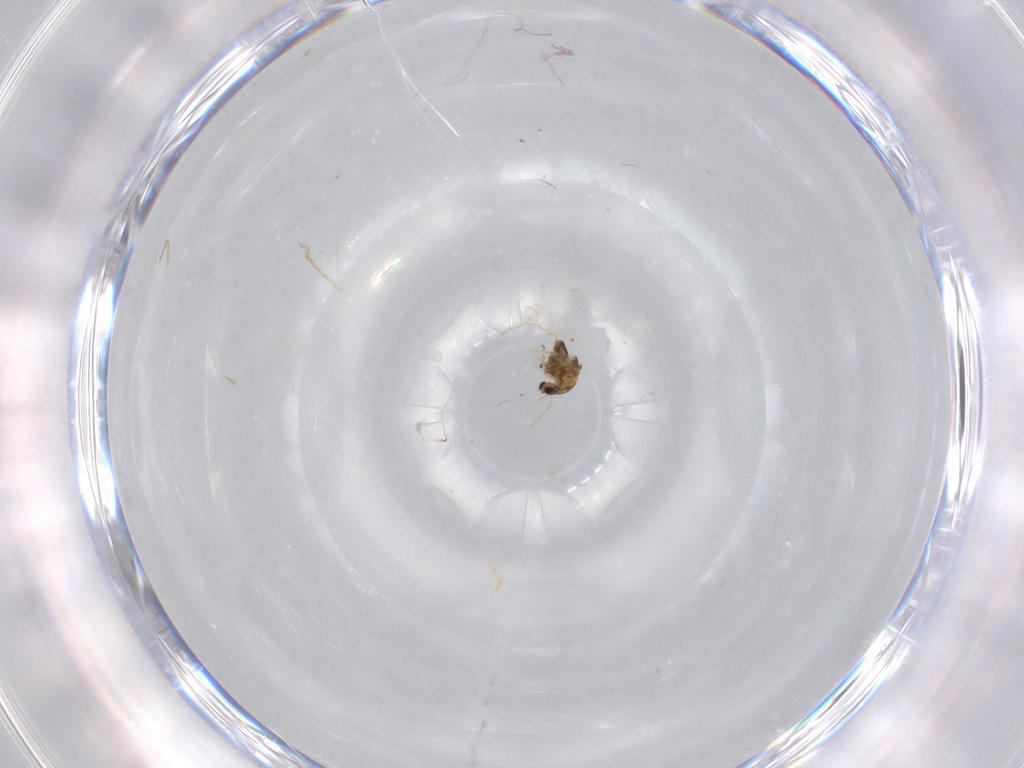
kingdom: Animalia
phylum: Arthropoda
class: Insecta
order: Diptera
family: Chironomidae
